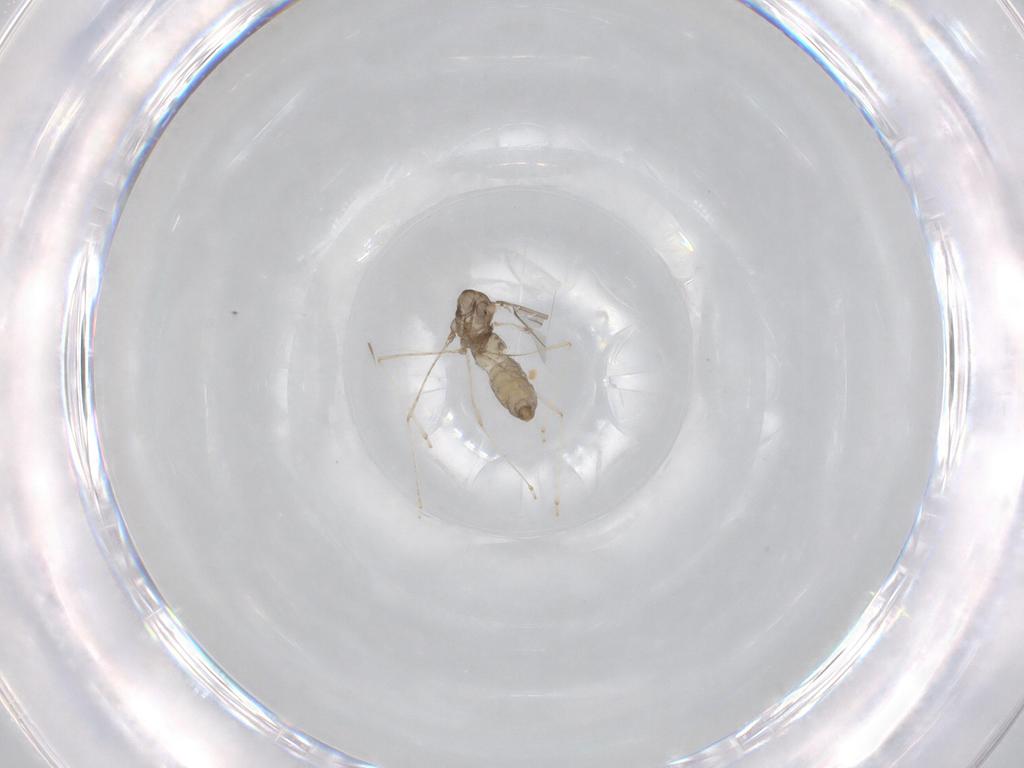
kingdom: Animalia
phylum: Arthropoda
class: Insecta
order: Diptera
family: Cecidomyiidae
